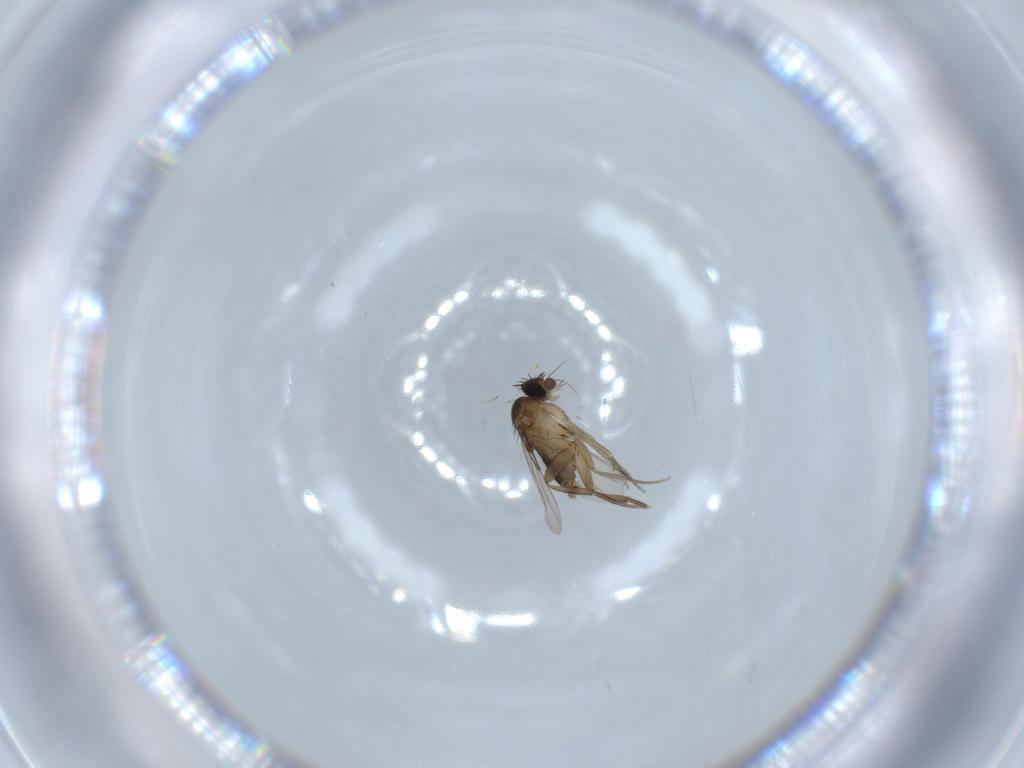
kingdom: Animalia
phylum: Arthropoda
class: Insecta
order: Diptera
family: Phoridae
